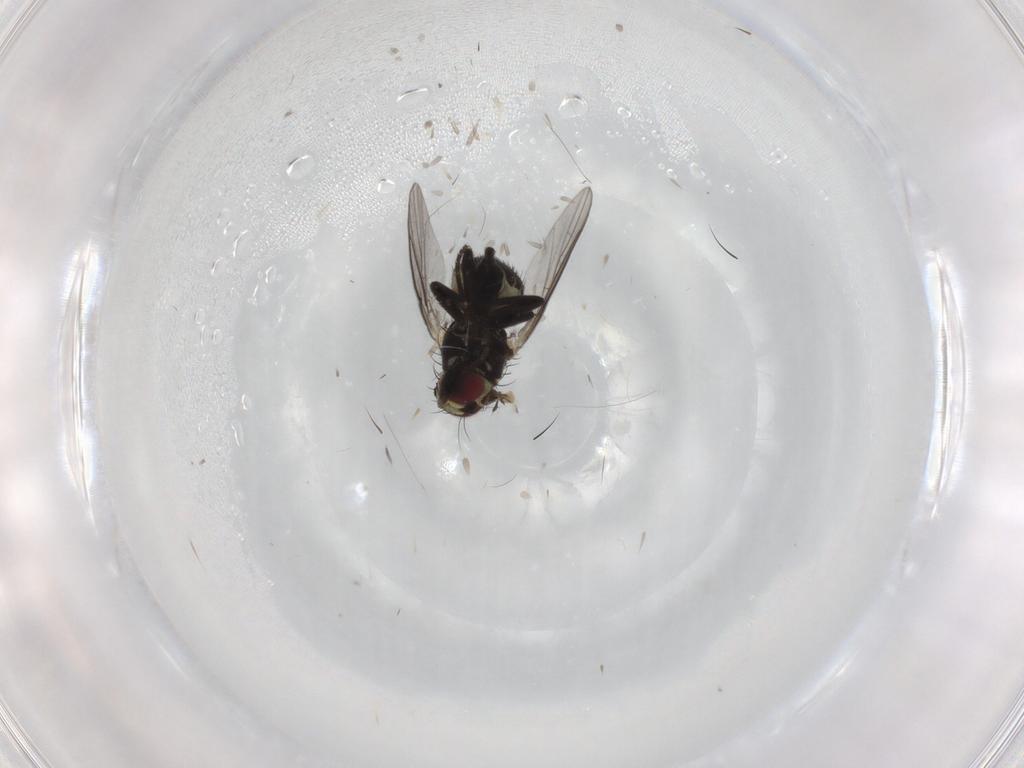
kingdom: Animalia
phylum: Arthropoda
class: Insecta
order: Diptera
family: Agromyzidae
